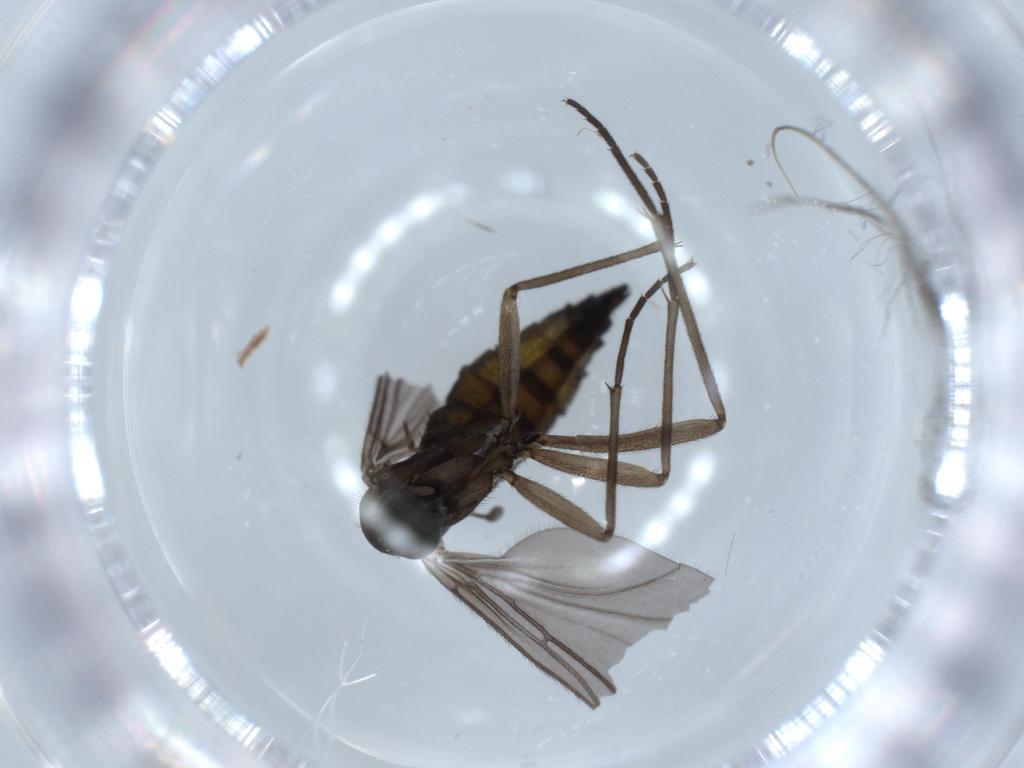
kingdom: Animalia
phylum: Arthropoda
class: Insecta
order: Diptera
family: Sciaridae
